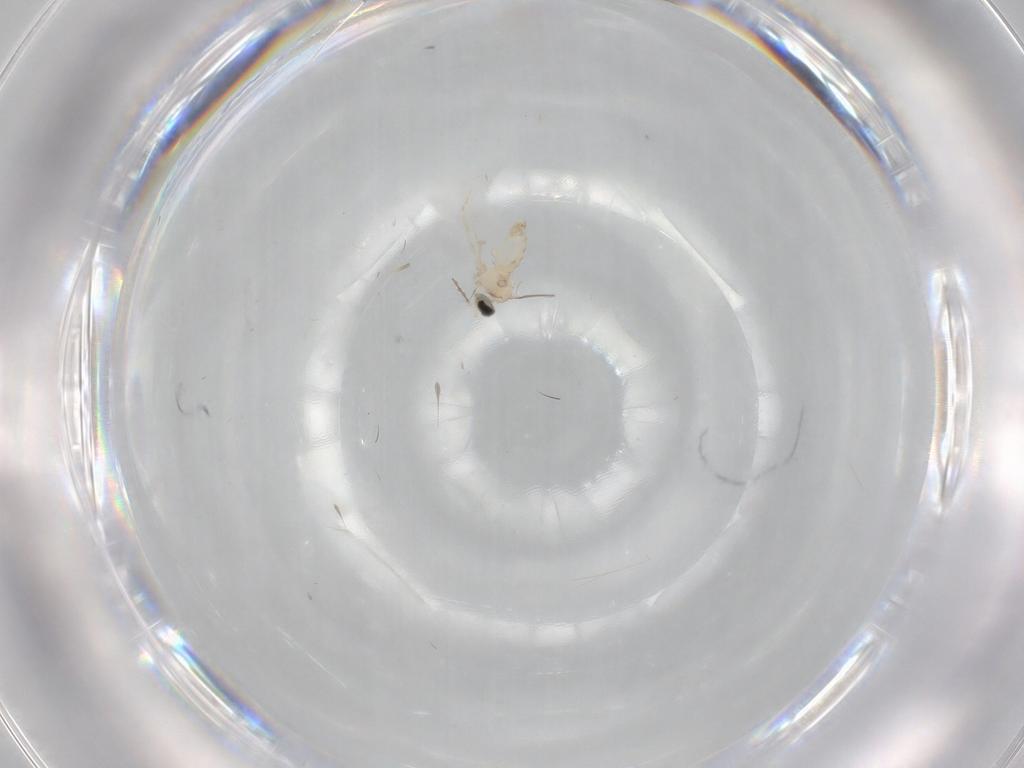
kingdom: Animalia
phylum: Arthropoda
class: Insecta
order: Diptera
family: Cecidomyiidae
